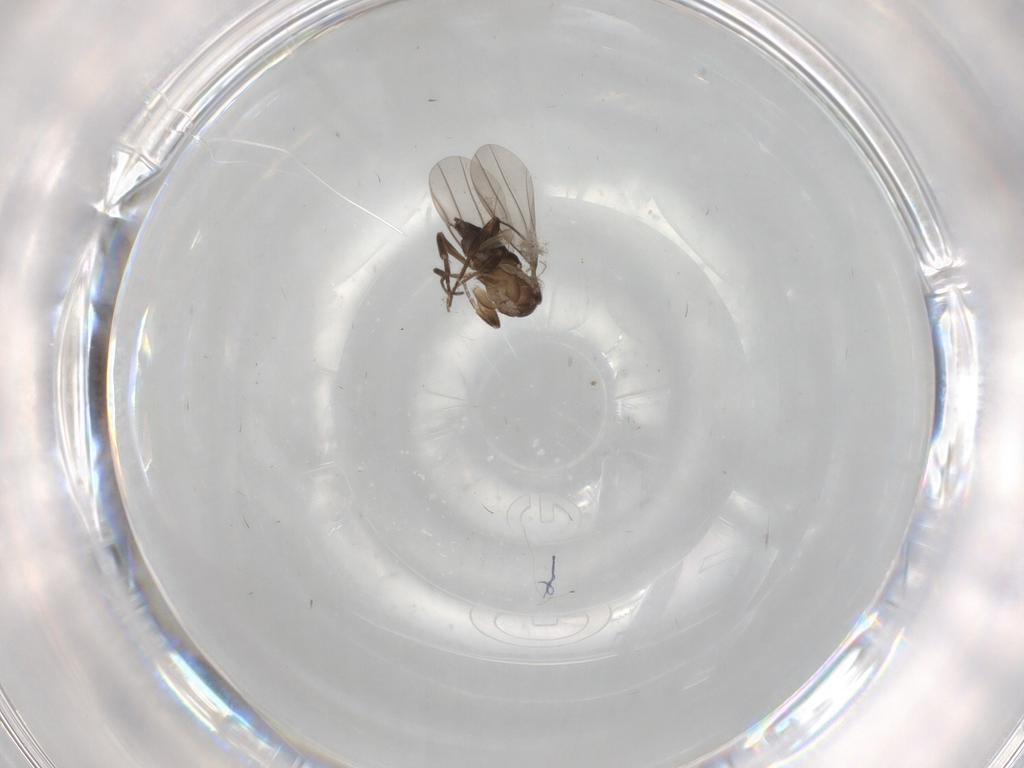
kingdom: Animalia
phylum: Arthropoda
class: Insecta
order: Diptera
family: Phoridae
